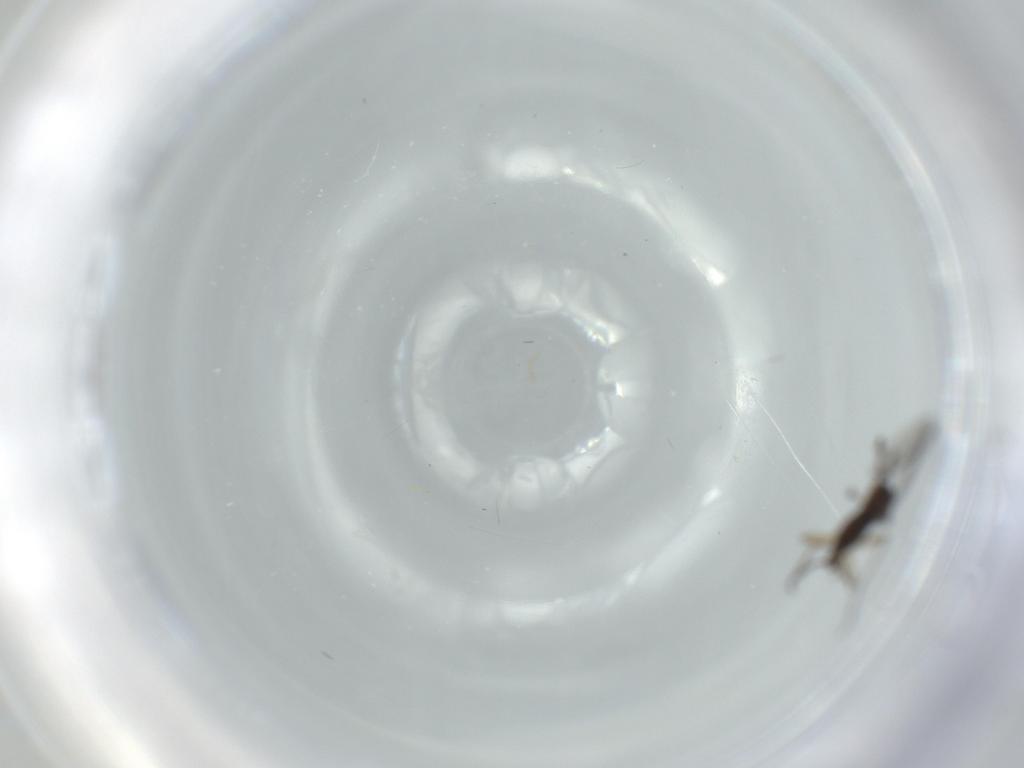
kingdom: Animalia
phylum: Arthropoda
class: Insecta
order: Diptera
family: Sciaridae
